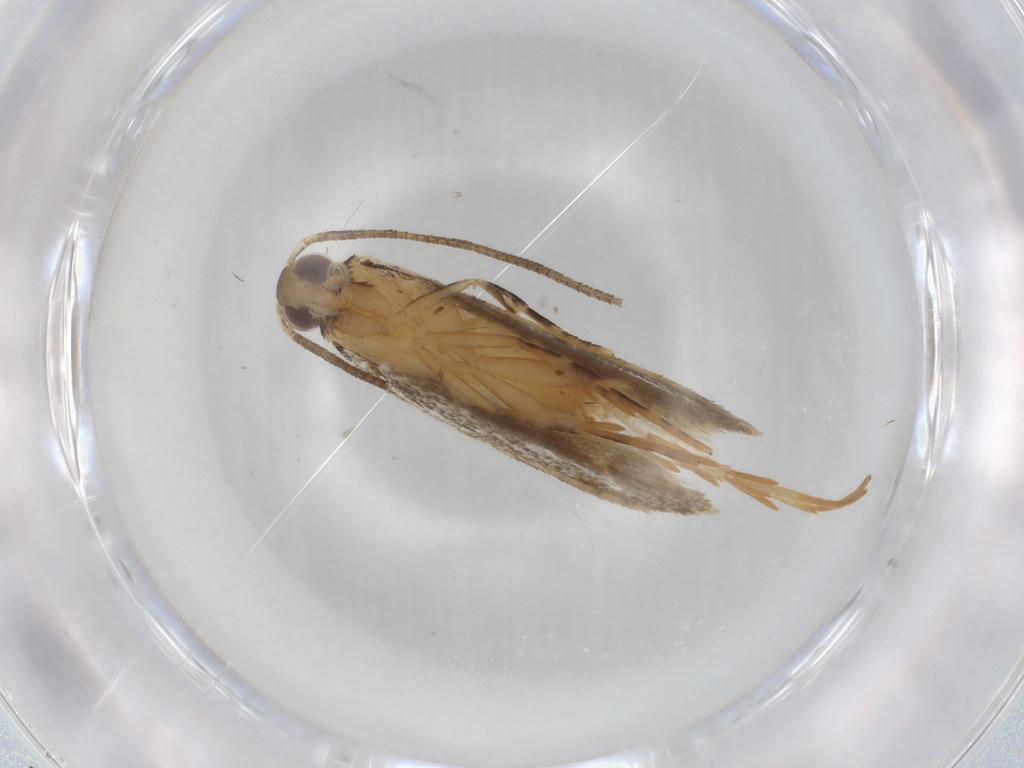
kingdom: Animalia
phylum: Arthropoda
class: Insecta
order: Lepidoptera
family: Autostichidae
